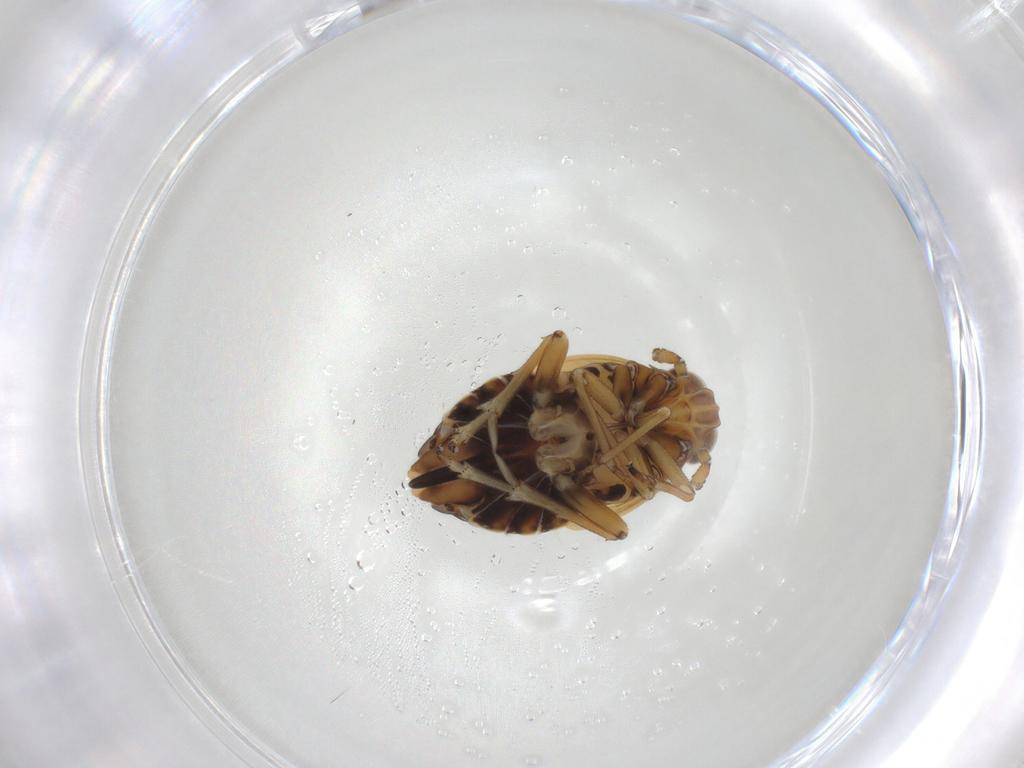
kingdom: Animalia
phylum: Arthropoda
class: Insecta
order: Hemiptera
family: Delphacidae
